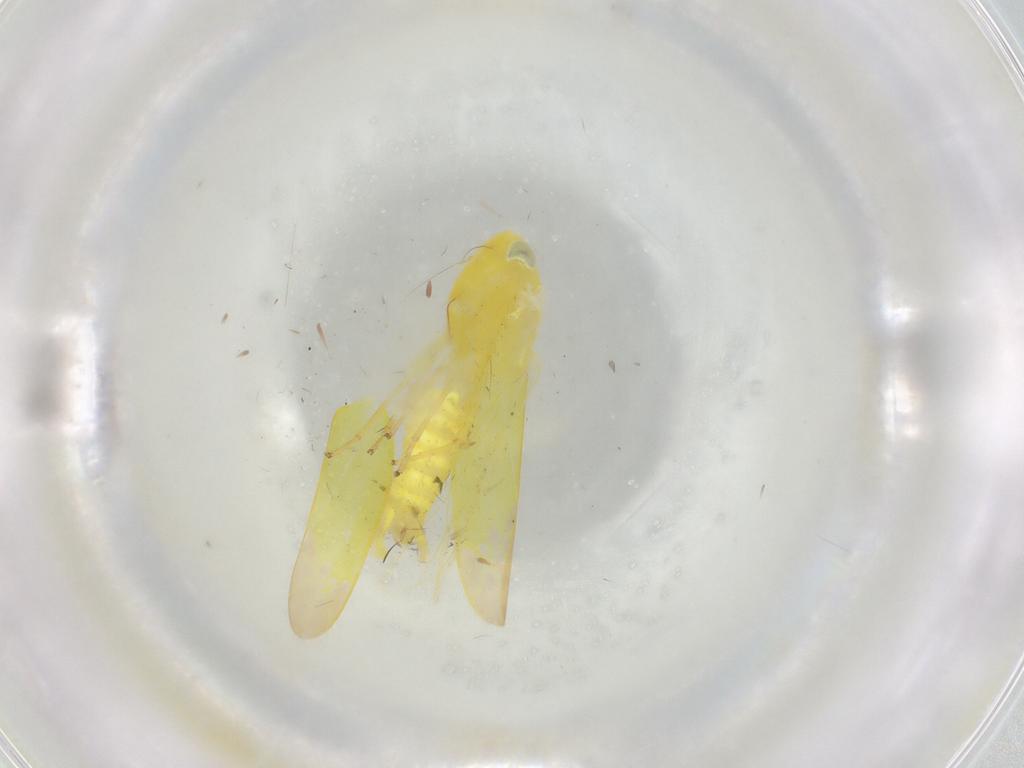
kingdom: Animalia
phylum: Arthropoda
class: Insecta
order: Hemiptera
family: Cicadellidae
